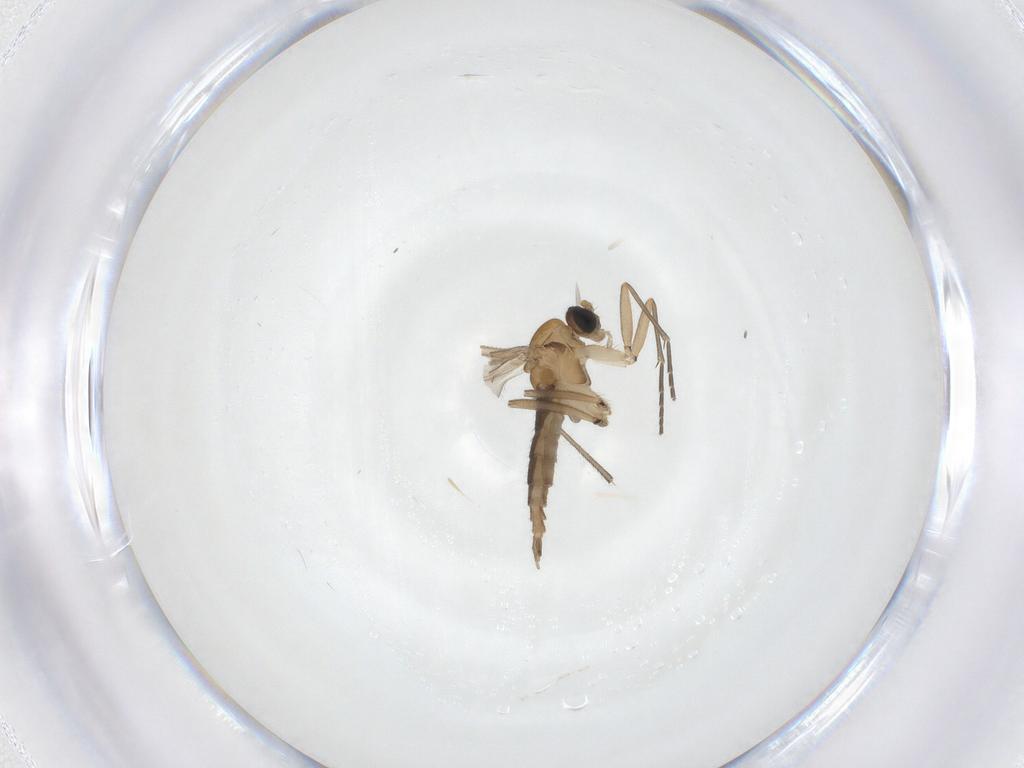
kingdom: Animalia
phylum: Arthropoda
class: Insecta
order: Diptera
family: Sciaridae
